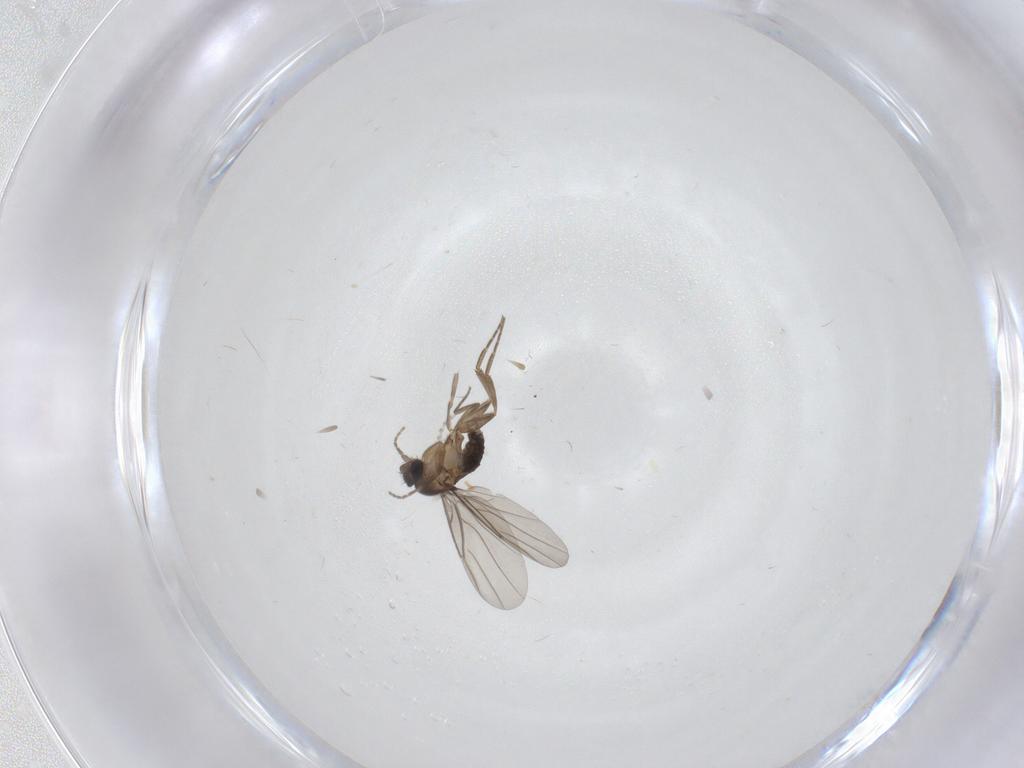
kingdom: Animalia
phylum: Arthropoda
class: Insecta
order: Diptera
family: Cecidomyiidae
